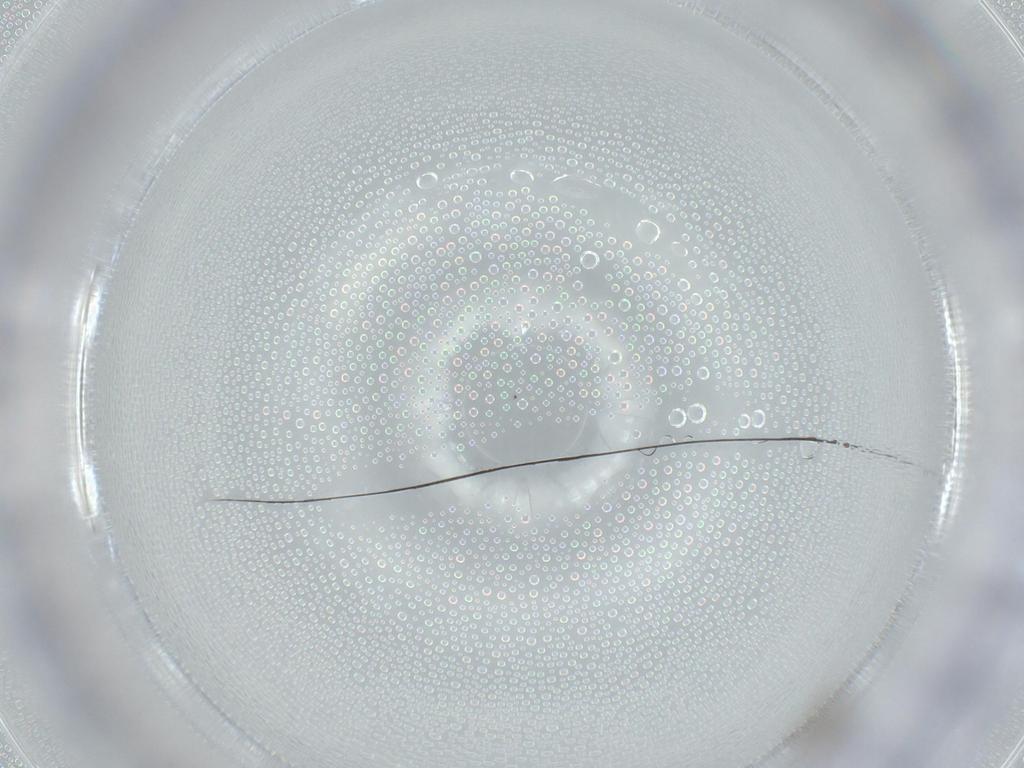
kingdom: Animalia
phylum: Arthropoda
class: Insecta
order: Hymenoptera
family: Mymaridae
